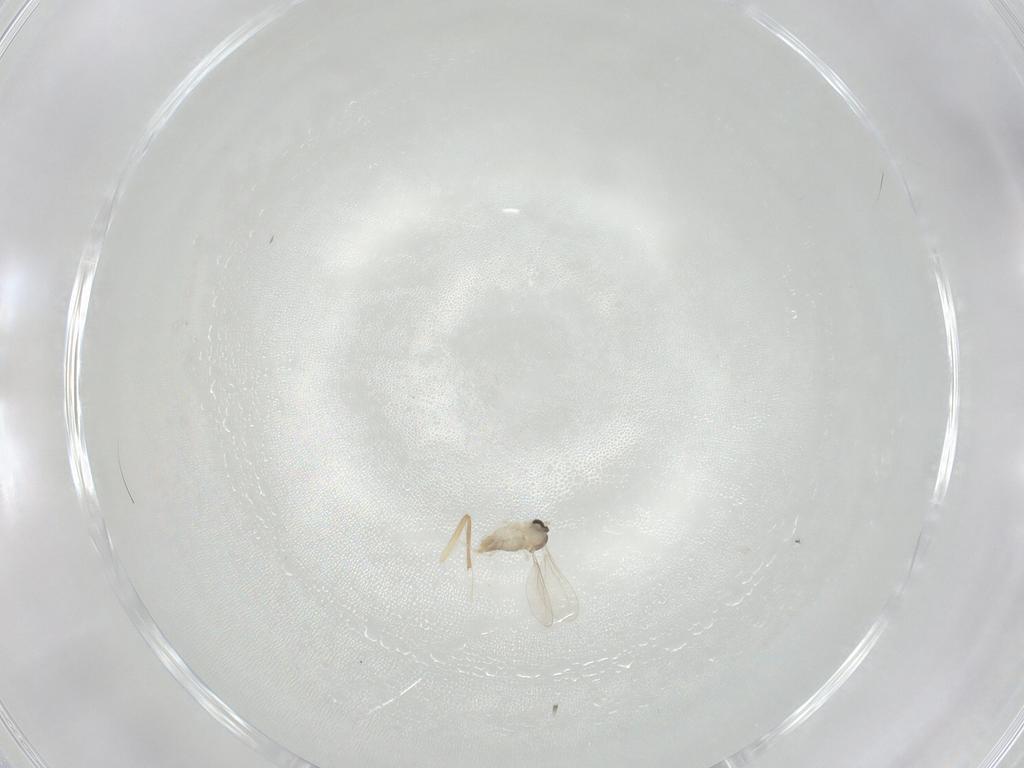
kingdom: Animalia
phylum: Arthropoda
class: Insecta
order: Diptera
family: Cecidomyiidae
